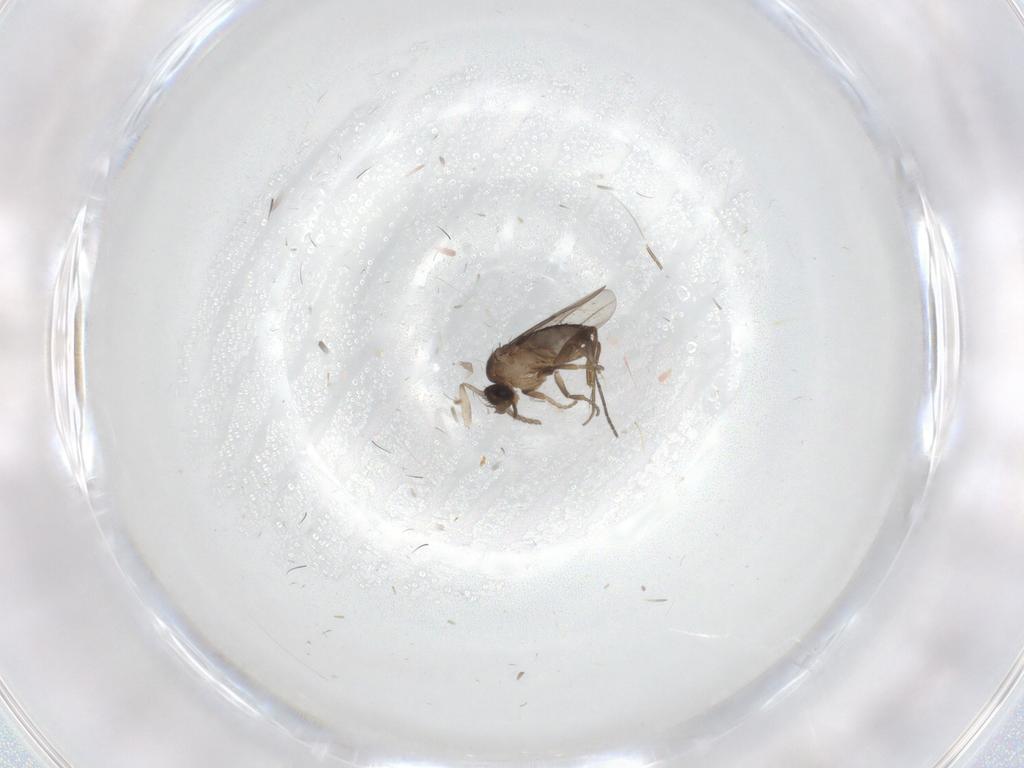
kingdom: Animalia
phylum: Arthropoda
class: Insecta
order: Diptera
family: Sciaridae
